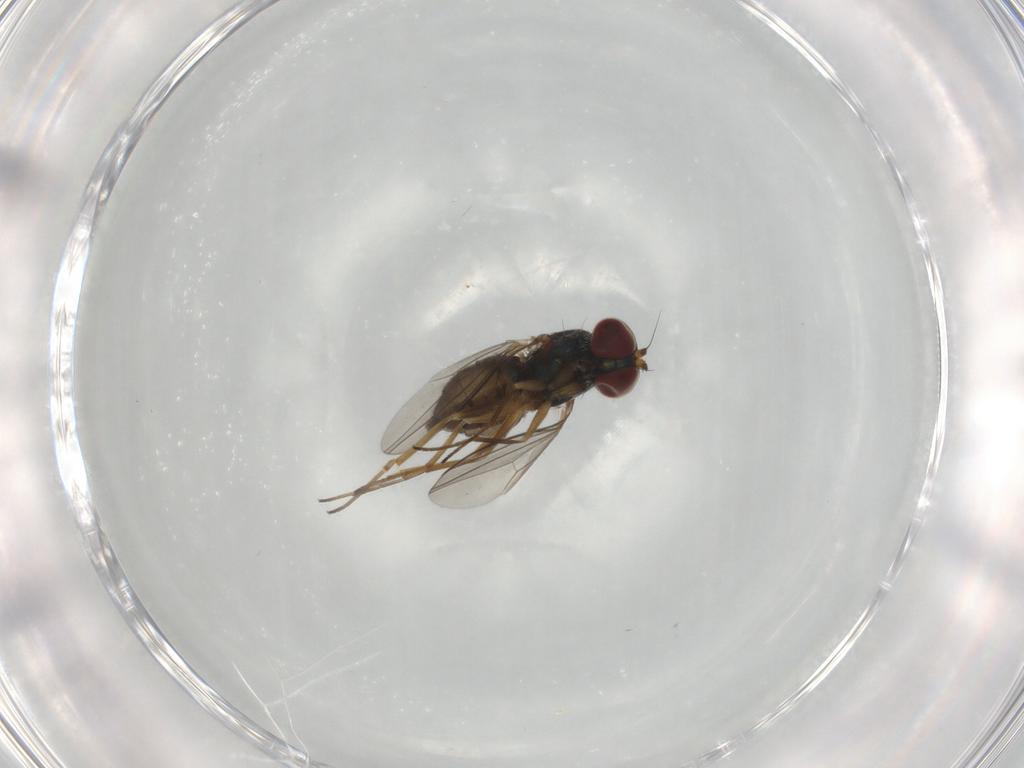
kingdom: Animalia
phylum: Arthropoda
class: Insecta
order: Diptera
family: Dolichopodidae
